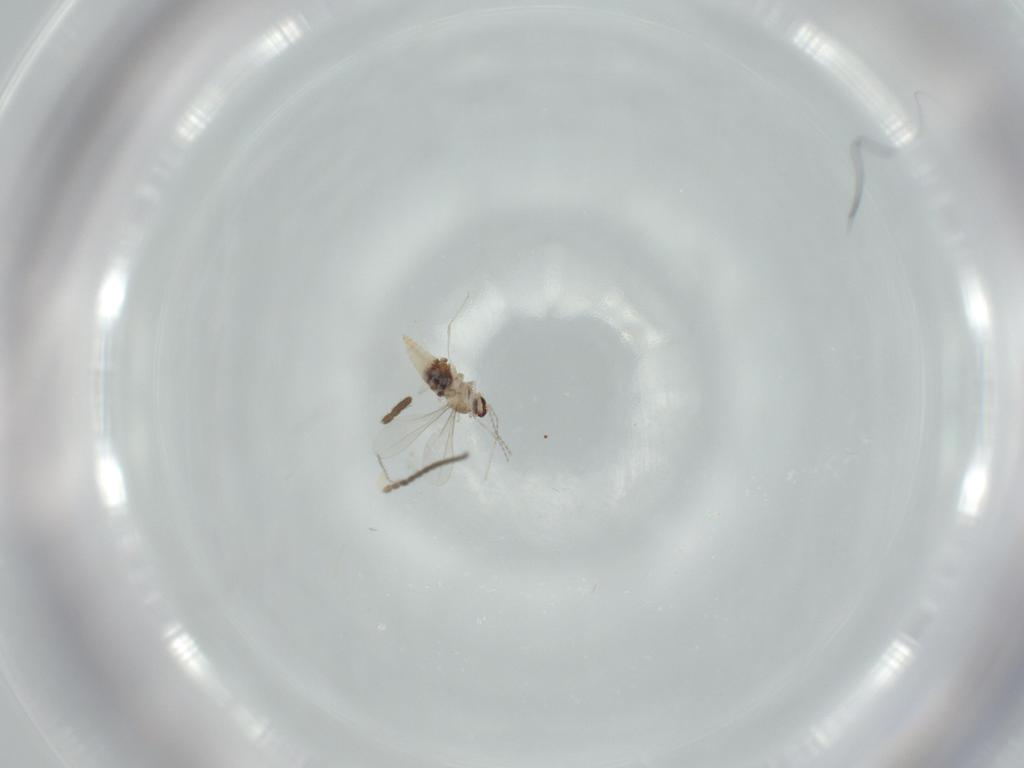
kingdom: Animalia
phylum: Arthropoda
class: Insecta
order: Diptera
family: Cecidomyiidae
